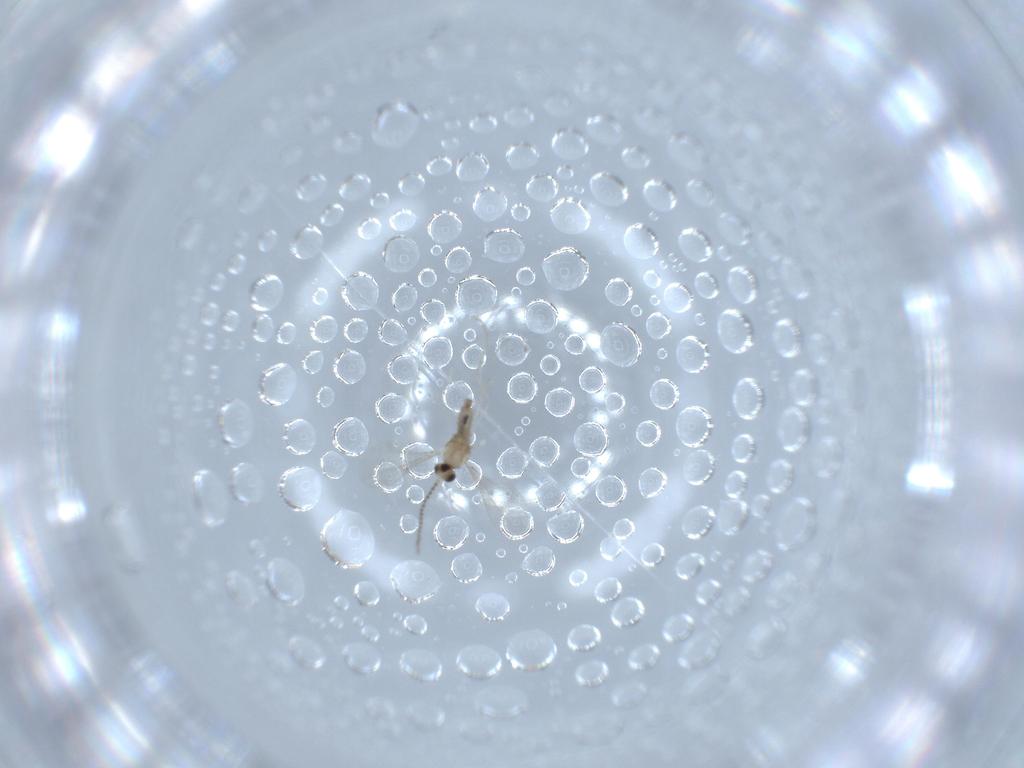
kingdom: Animalia
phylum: Arthropoda
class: Insecta
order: Diptera
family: Cecidomyiidae
